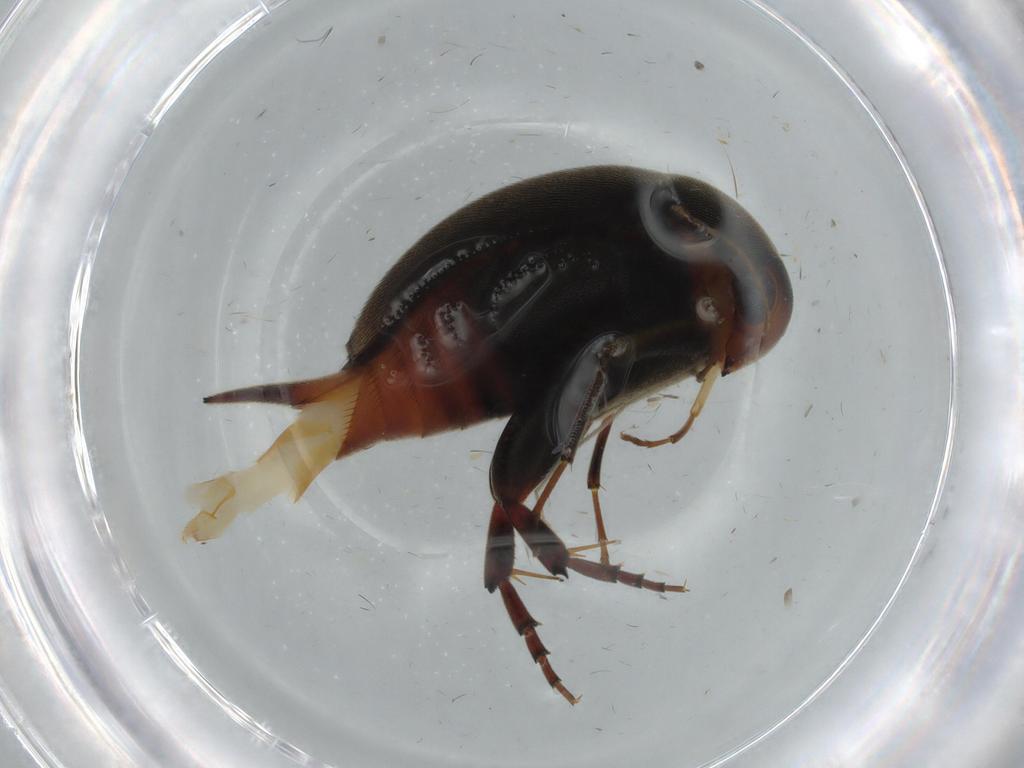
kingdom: Animalia
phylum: Arthropoda
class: Insecta
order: Coleoptera
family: Mordellidae
